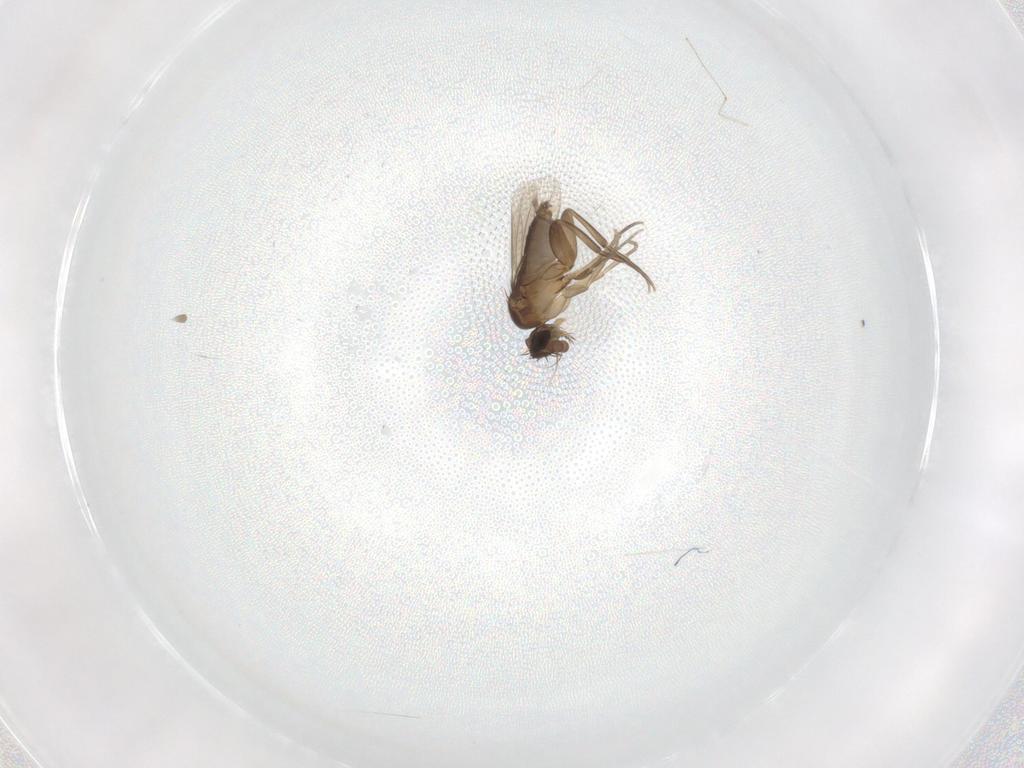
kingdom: Animalia
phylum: Arthropoda
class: Insecta
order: Diptera
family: Phoridae
